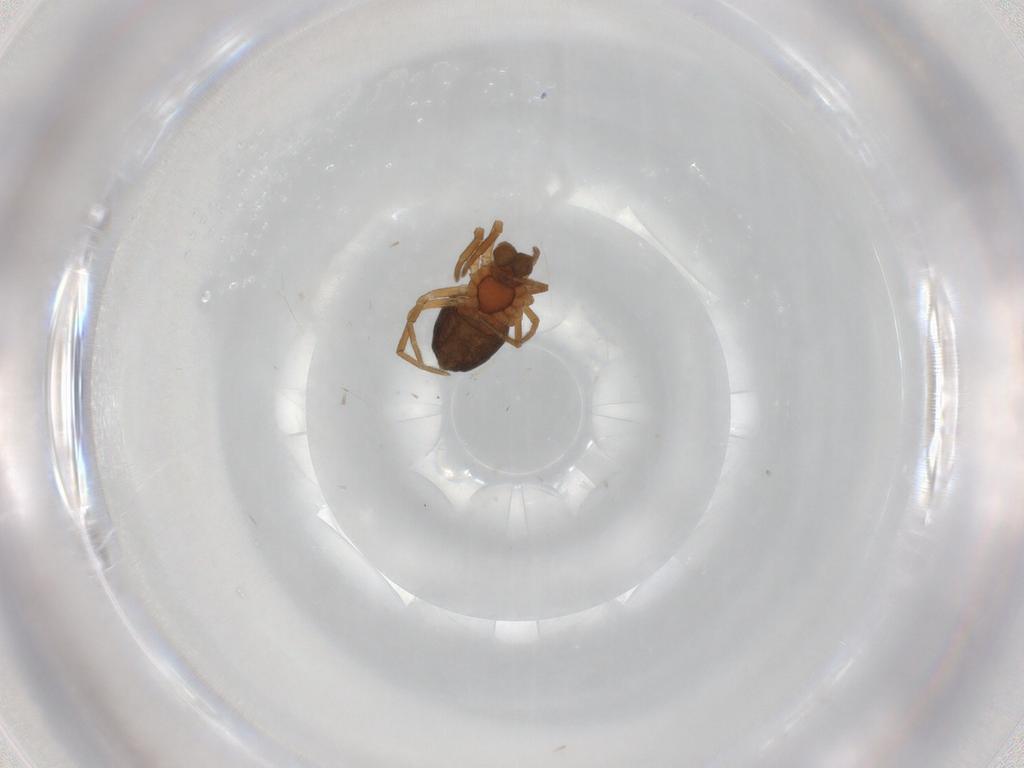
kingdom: Animalia
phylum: Arthropoda
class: Arachnida
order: Araneae
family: Linyphiidae
